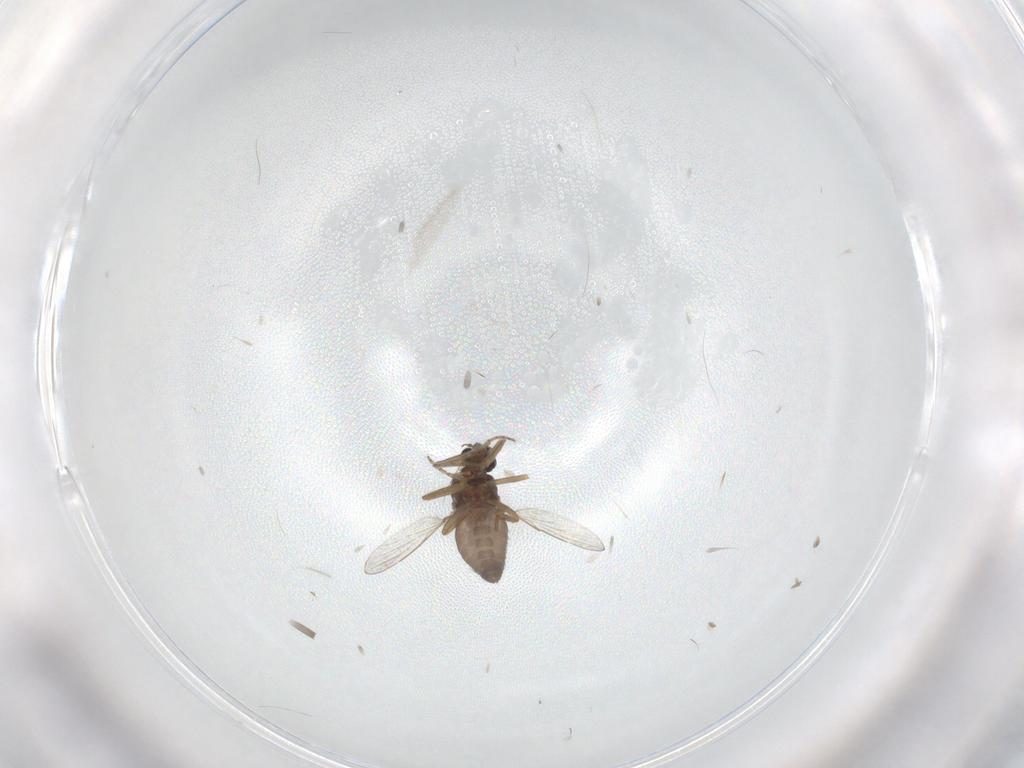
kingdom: Animalia
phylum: Arthropoda
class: Insecta
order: Diptera
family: Ceratopogonidae
